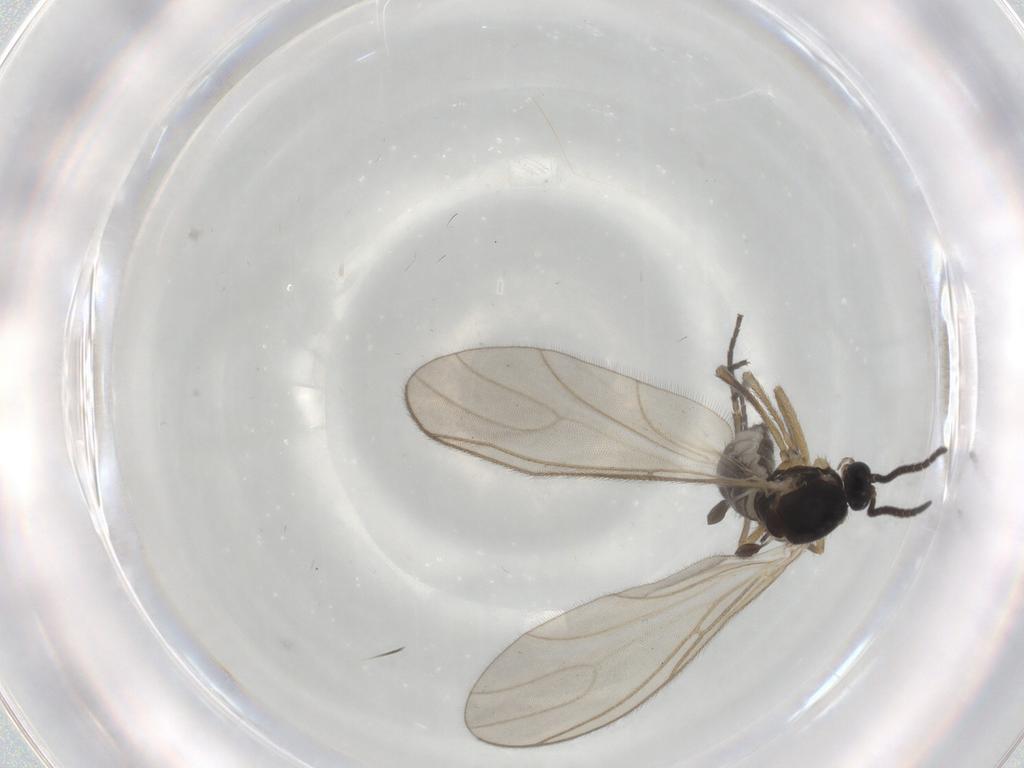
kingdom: Animalia
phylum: Arthropoda
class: Insecta
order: Diptera
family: Sciaridae
